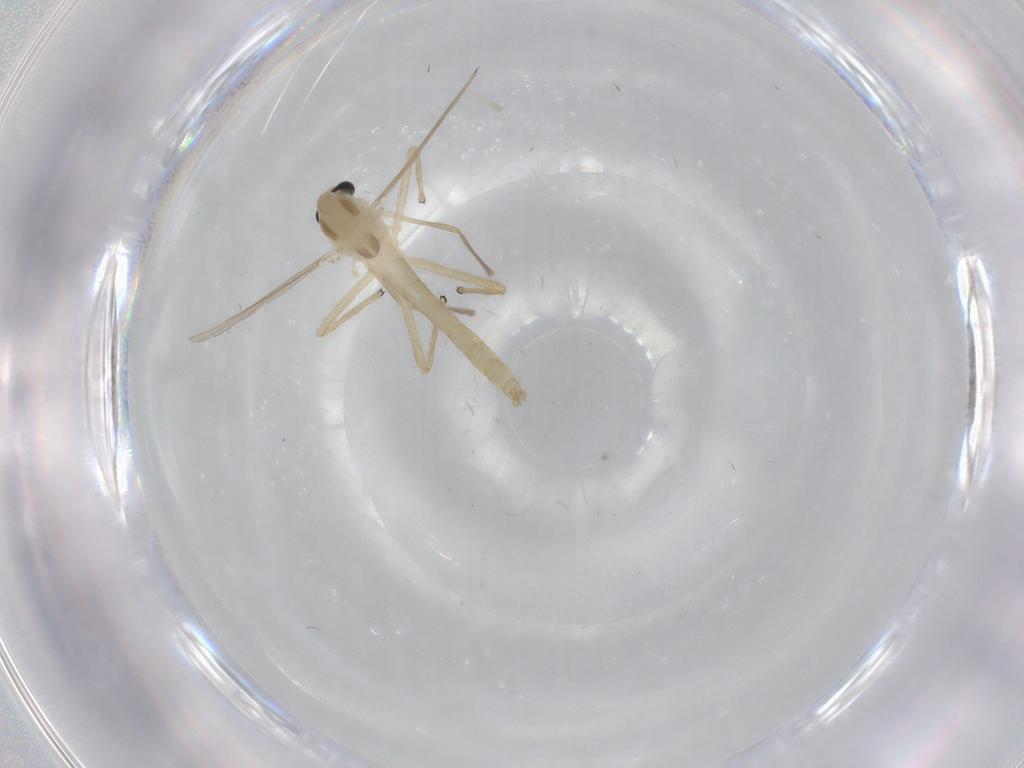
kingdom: Animalia
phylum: Arthropoda
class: Insecta
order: Diptera
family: Chironomidae
